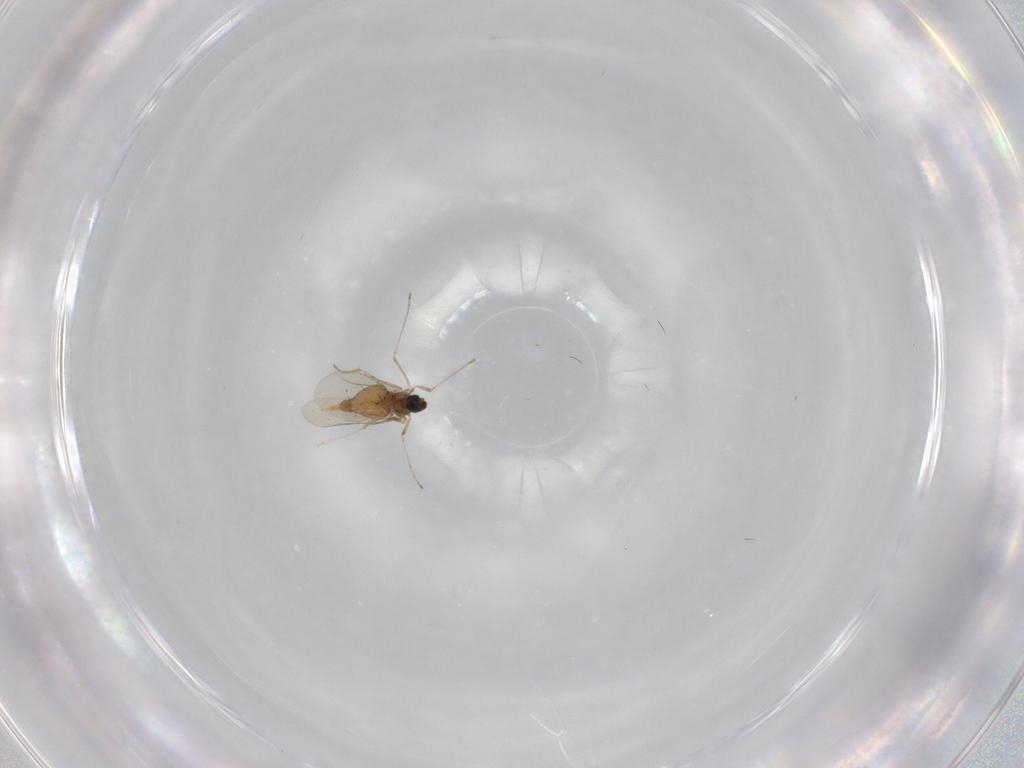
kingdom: Animalia
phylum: Arthropoda
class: Insecta
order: Diptera
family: Cecidomyiidae
